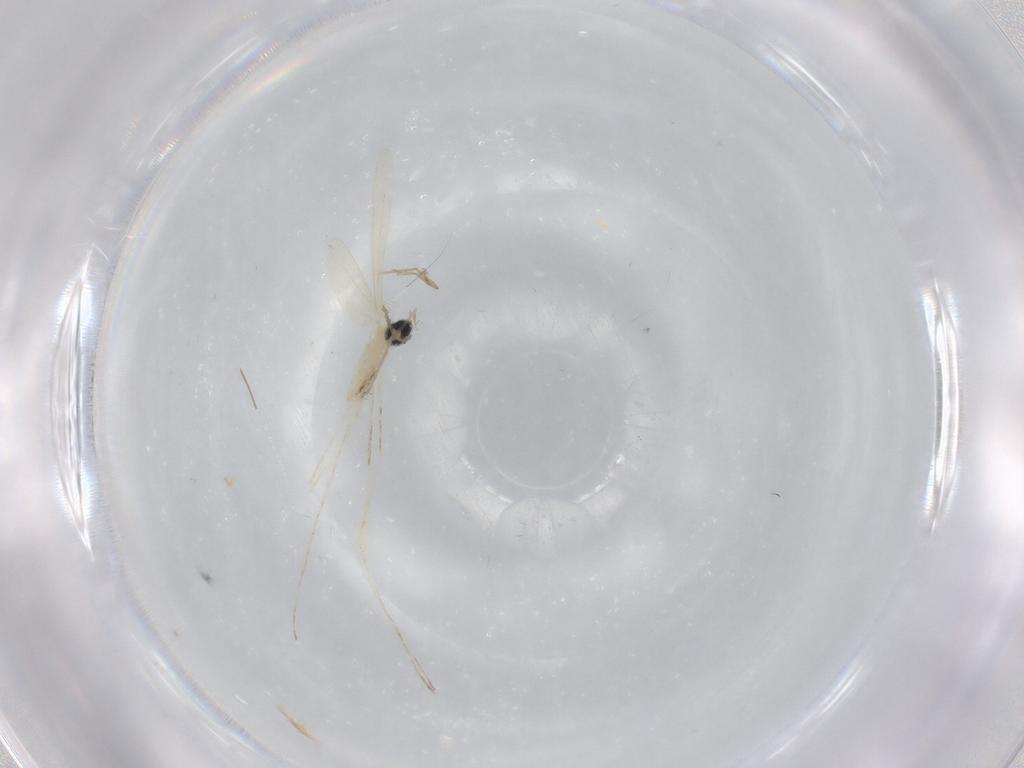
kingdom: Animalia
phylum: Arthropoda
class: Insecta
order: Diptera
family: Cecidomyiidae
